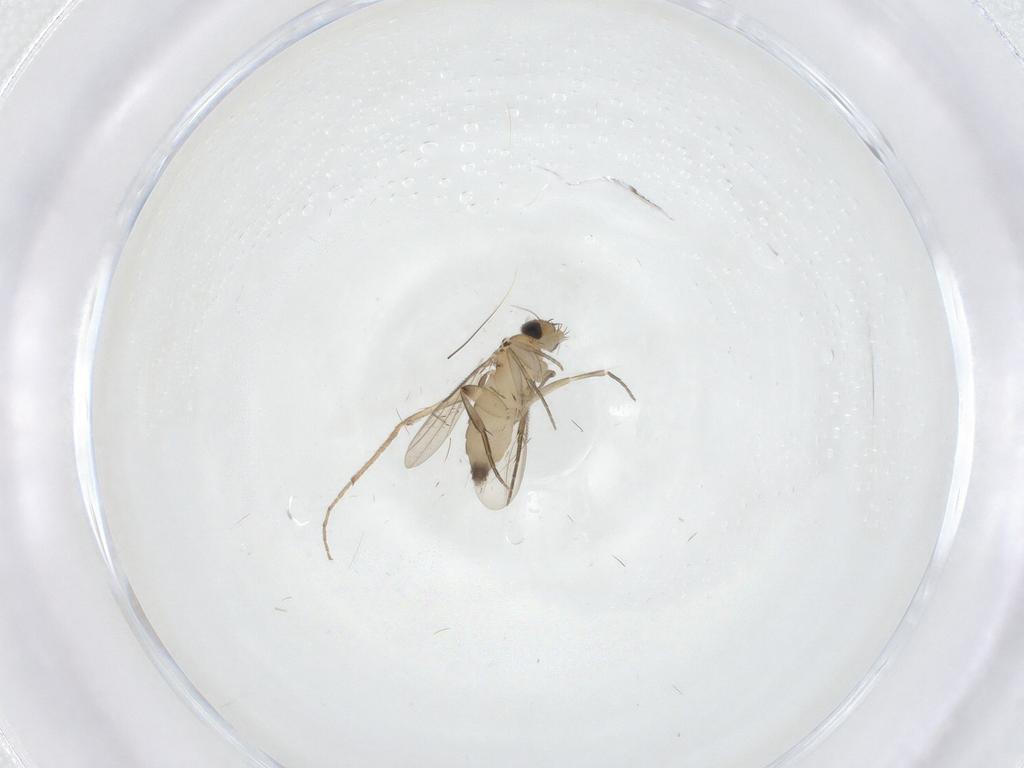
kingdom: Animalia
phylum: Arthropoda
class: Insecta
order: Diptera
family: Phoridae
